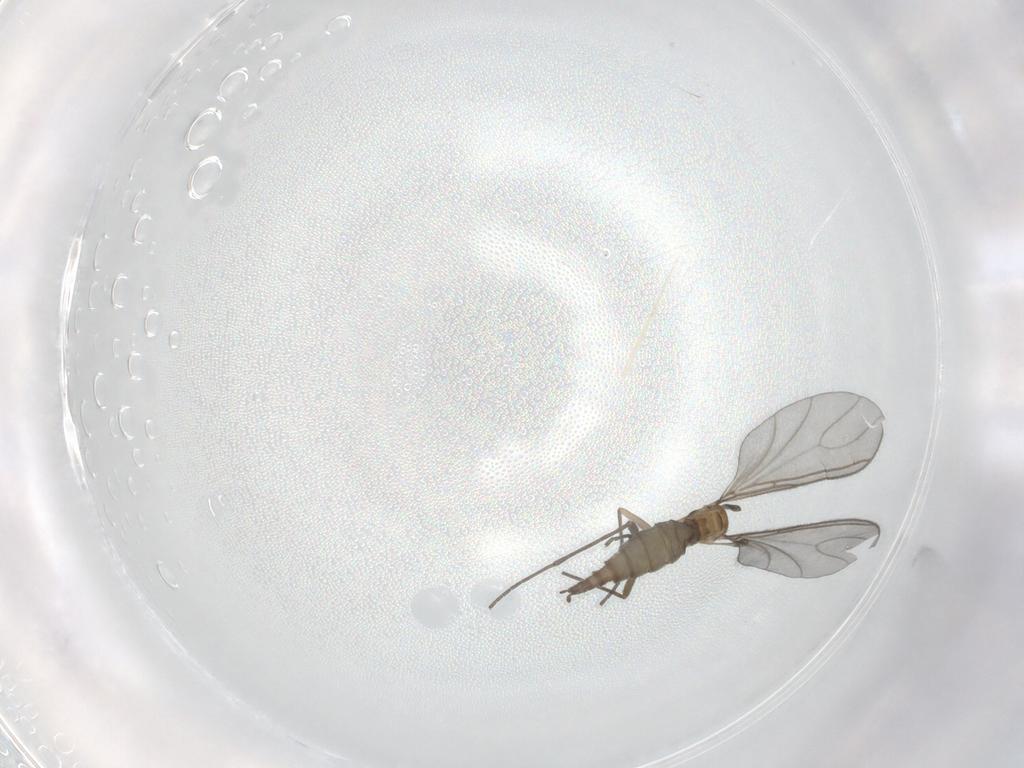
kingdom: Animalia
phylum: Arthropoda
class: Insecta
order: Diptera
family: Sciaridae
